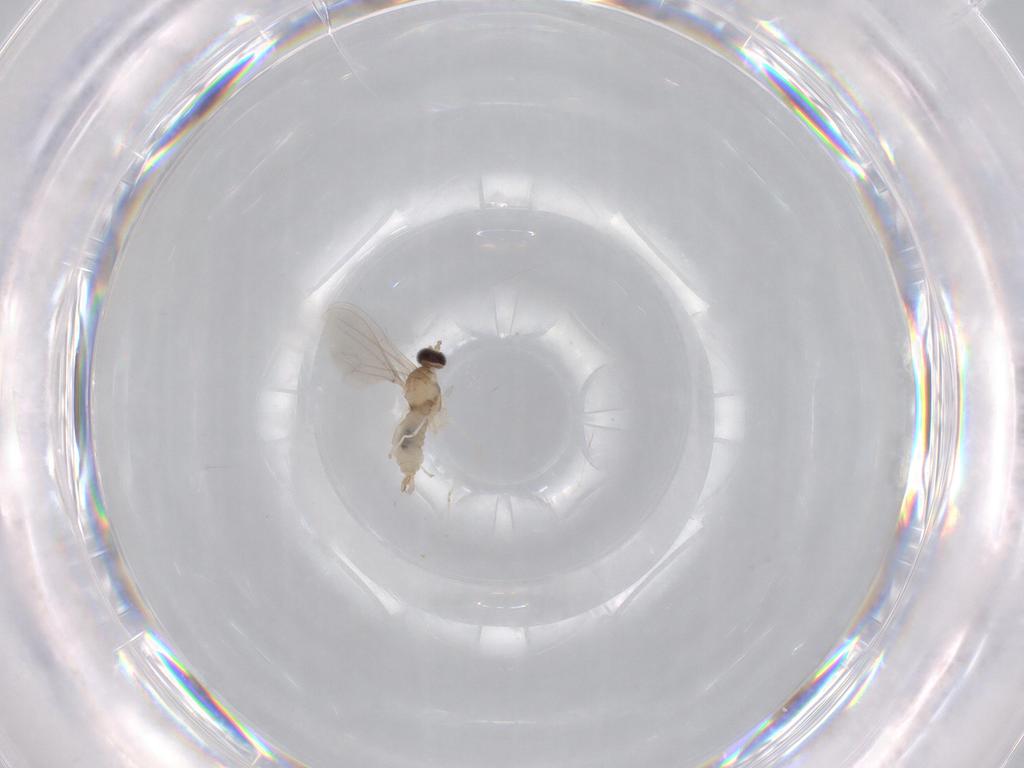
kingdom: Animalia
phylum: Arthropoda
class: Insecta
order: Diptera
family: Cecidomyiidae
